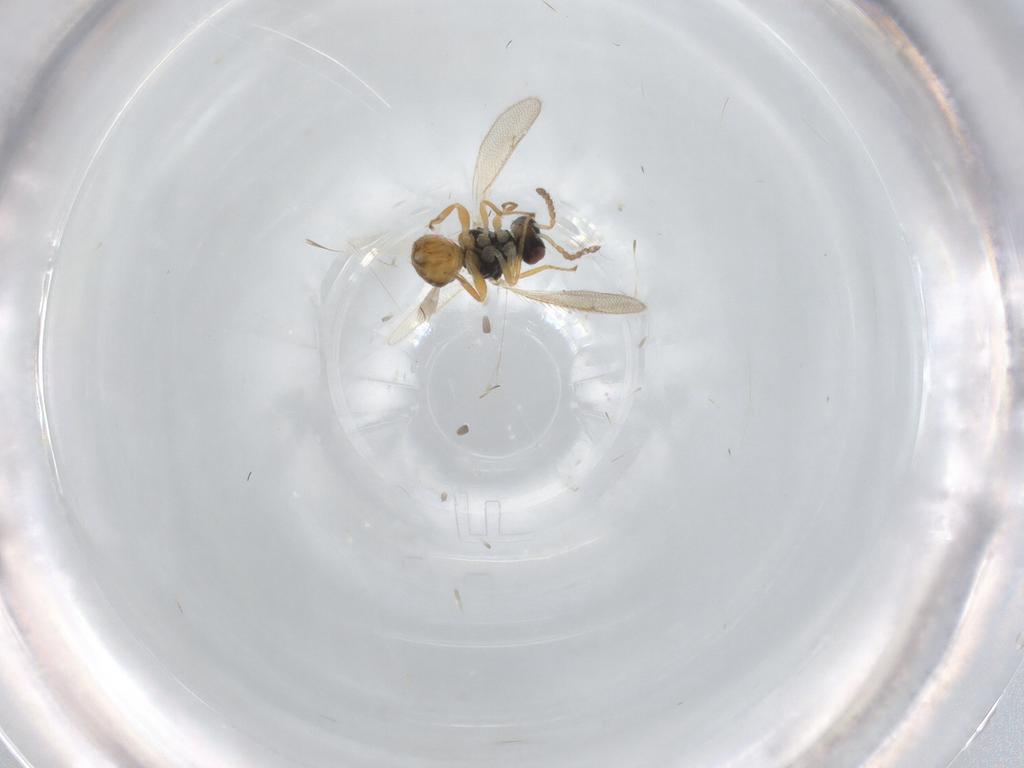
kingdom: Animalia
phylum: Arthropoda
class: Insecta
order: Hymenoptera
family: Eulophidae
